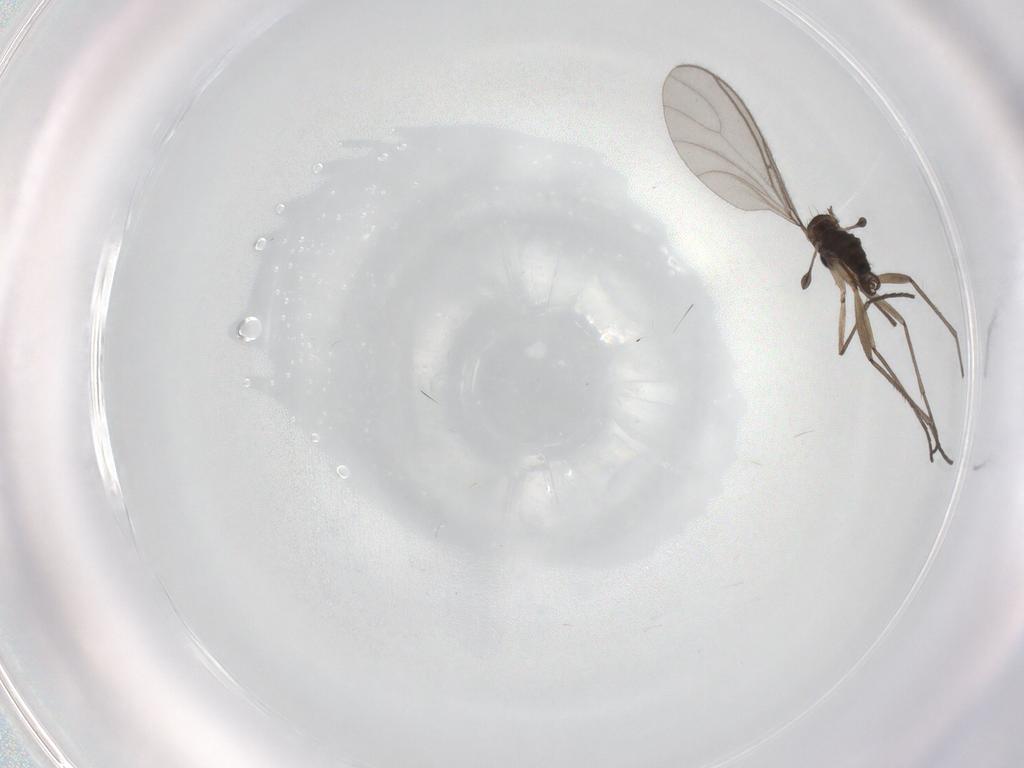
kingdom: Animalia
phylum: Arthropoda
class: Insecta
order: Diptera
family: Sciaridae
